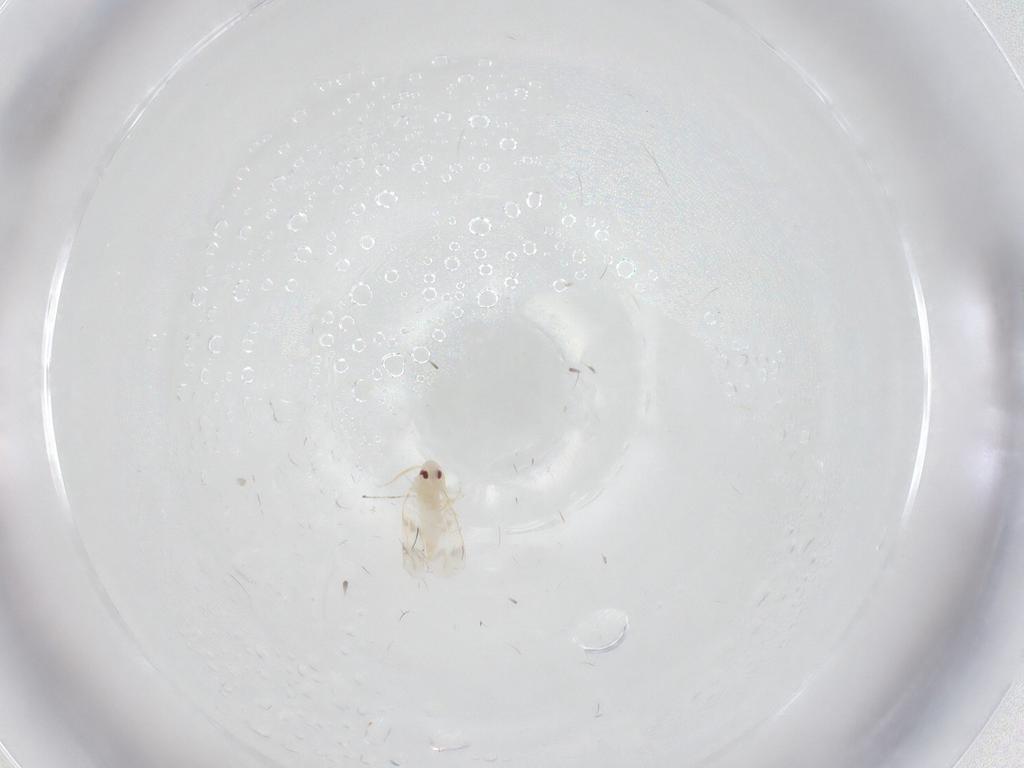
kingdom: Animalia
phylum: Arthropoda
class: Insecta
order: Hemiptera
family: Aleyrodidae
